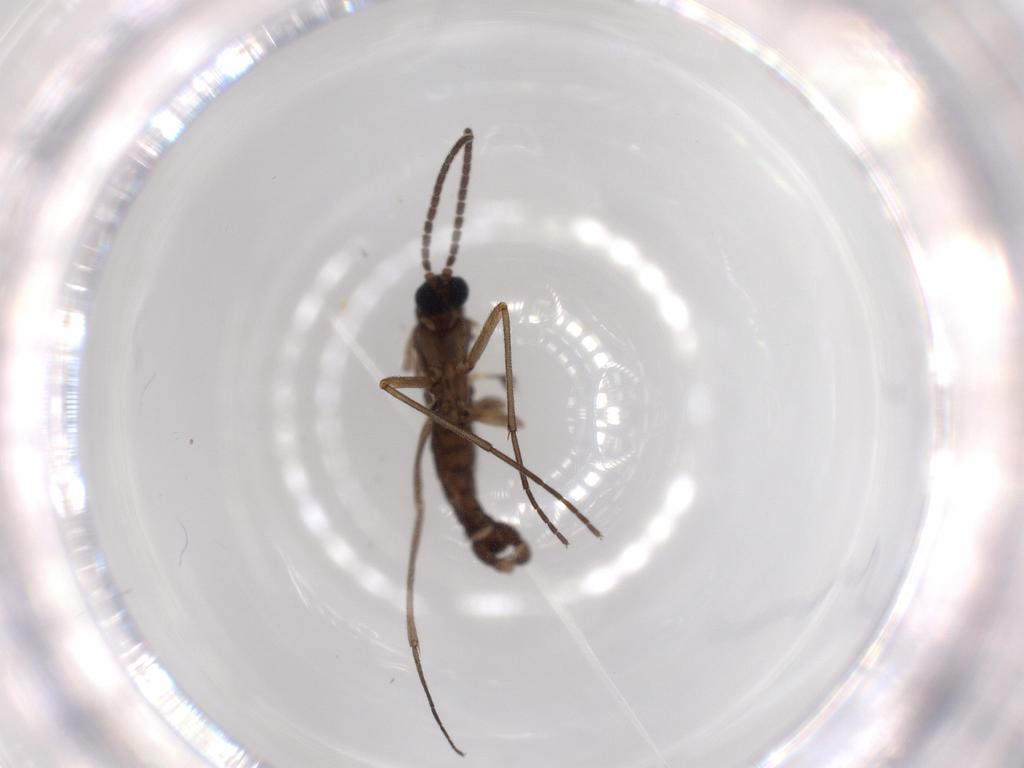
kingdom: Animalia
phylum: Arthropoda
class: Insecta
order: Diptera
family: Sciaridae
